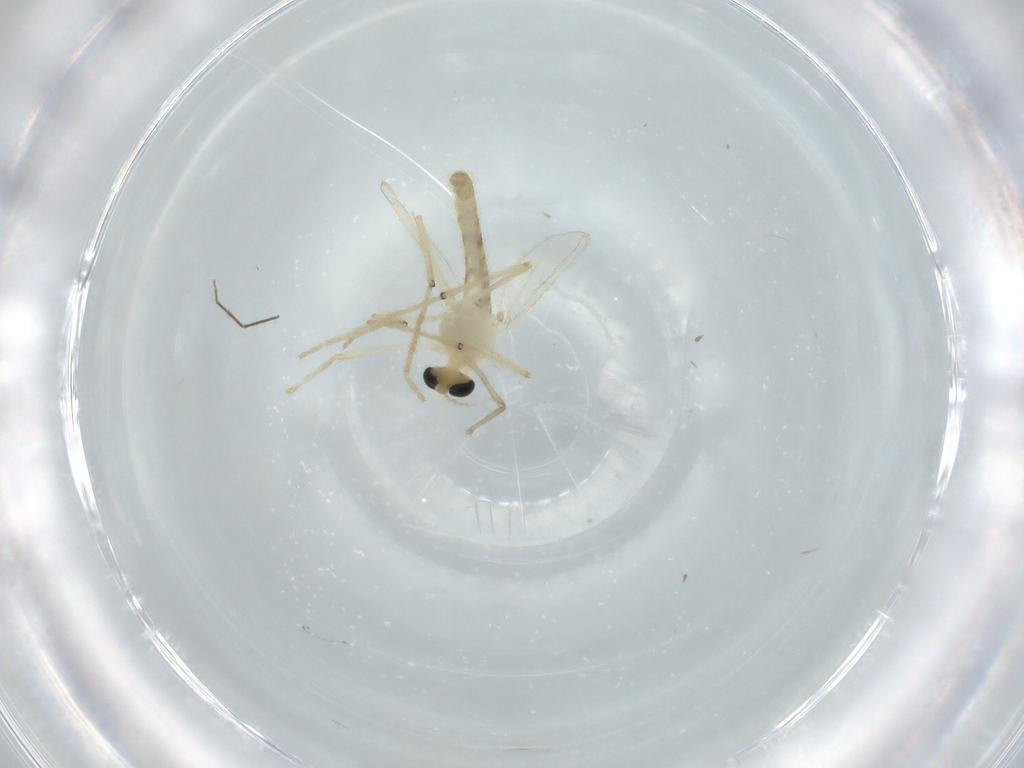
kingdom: Animalia
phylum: Arthropoda
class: Insecta
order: Diptera
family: Chironomidae
